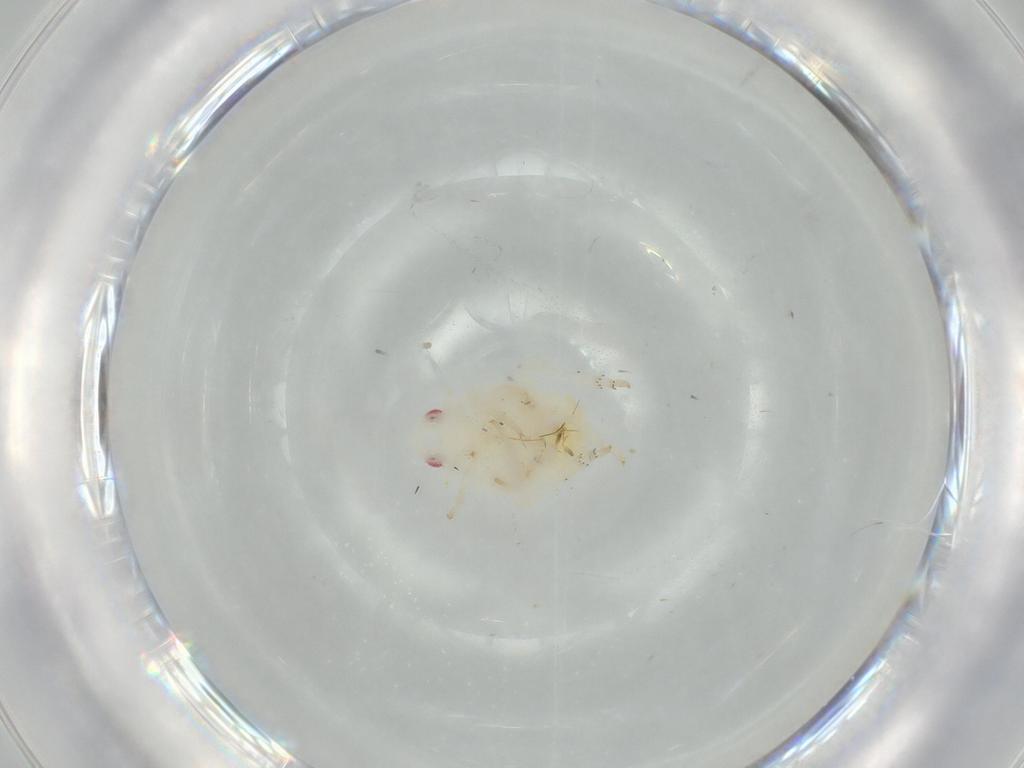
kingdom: Animalia
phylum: Arthropoda
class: Insecta
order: Hemiptera
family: Flatidae
